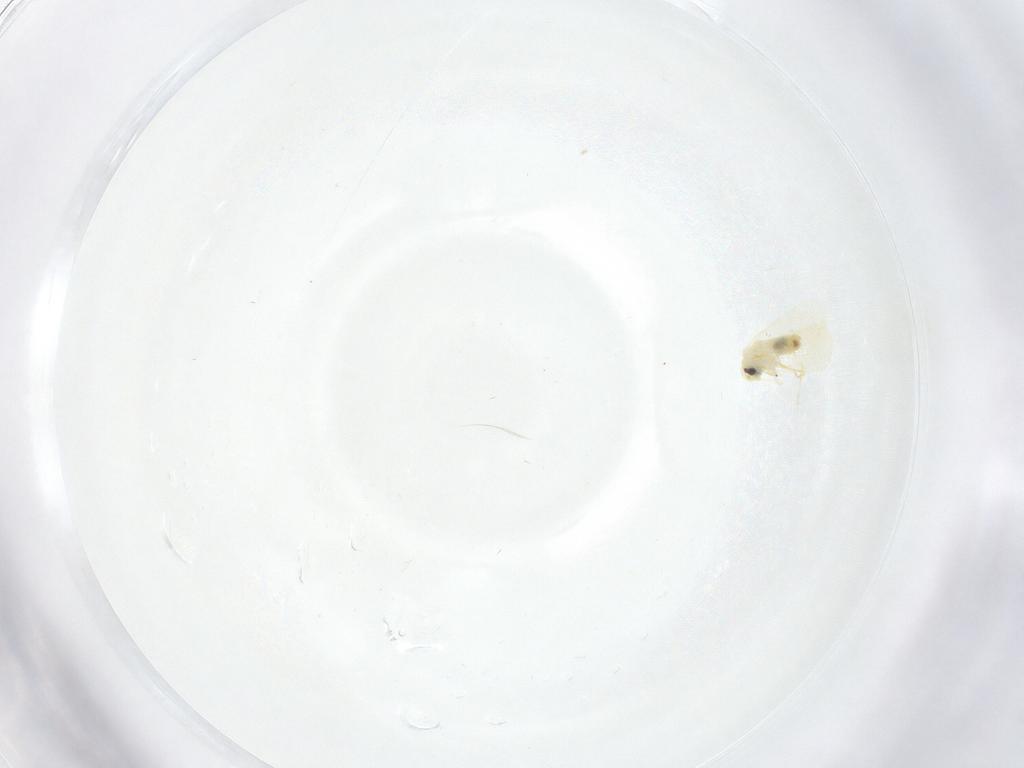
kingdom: Animalia
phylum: Arthropoda
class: Insecta
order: Hemiptera
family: Aleyrodidae
